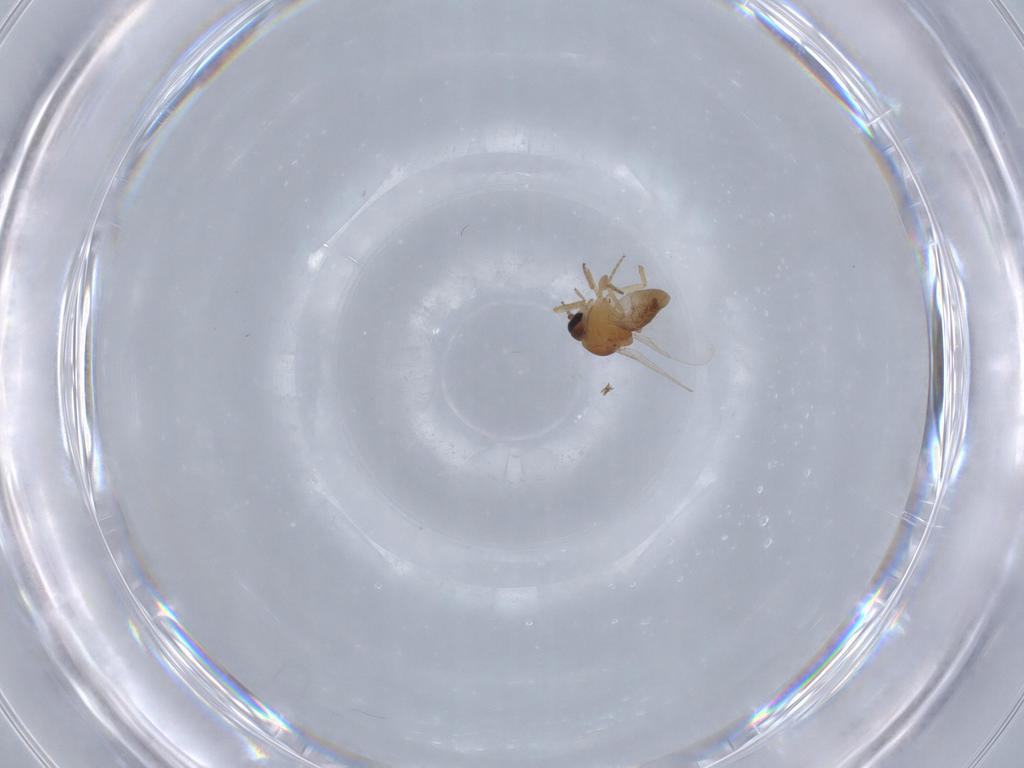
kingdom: Animalia
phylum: Arthropoda
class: Insecta
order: Diptera
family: Ceratopogonidae
